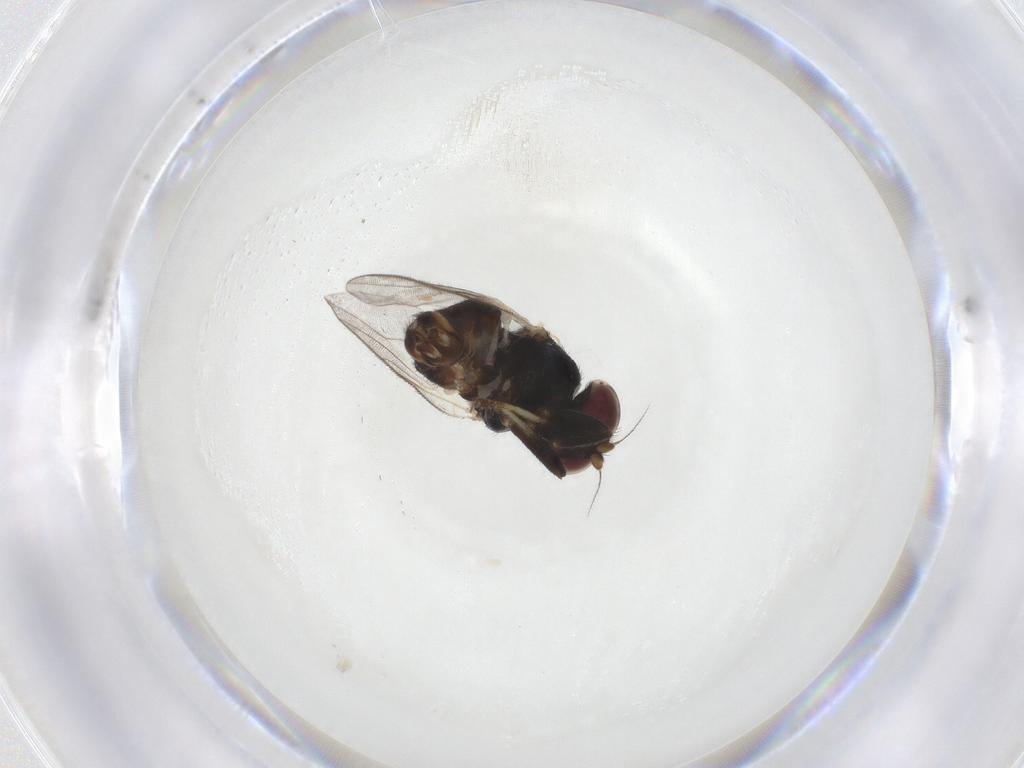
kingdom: Animalia
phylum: Arthropoda
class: Insecta
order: Diptera
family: Chloropidae
